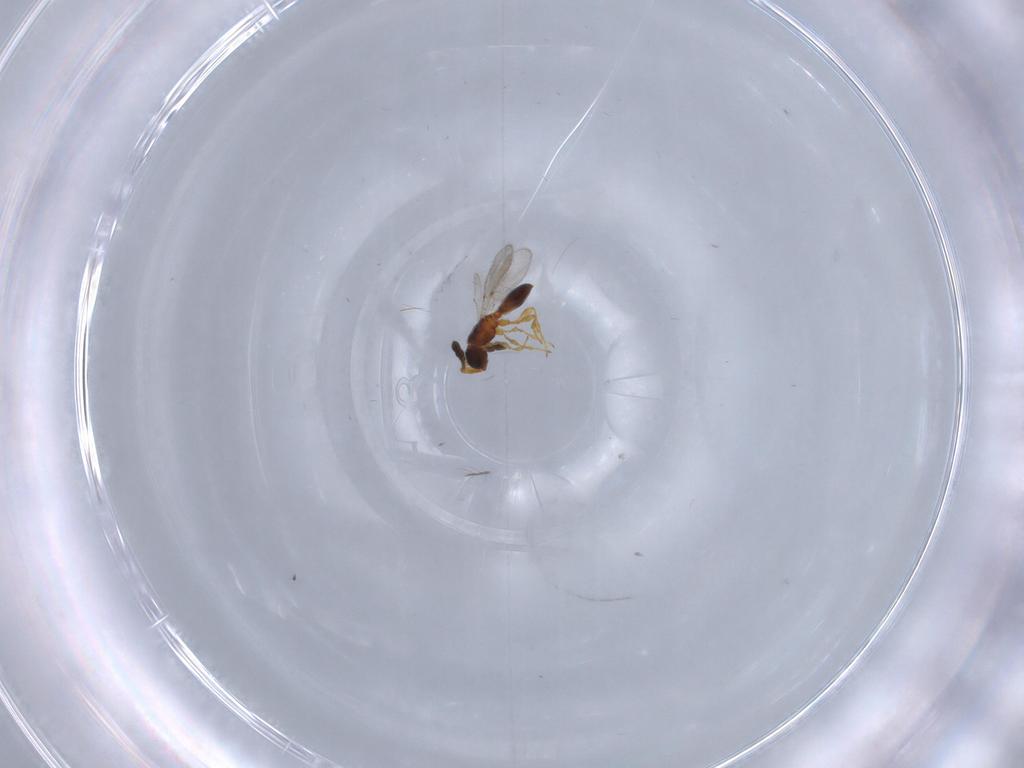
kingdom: Animalia
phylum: Arthropoda
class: Insecta
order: Hymenoptera
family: Diapriidae
